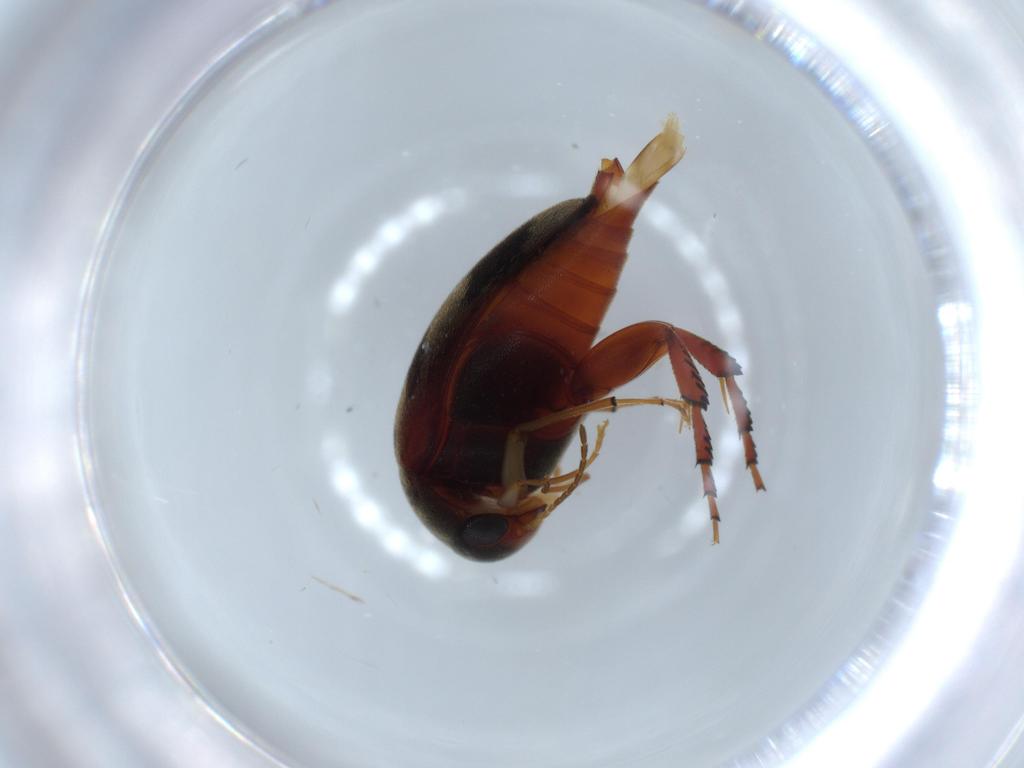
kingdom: Animalia
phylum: Arthropoda
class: Insecta
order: Coleoptera
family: Mordellidae
